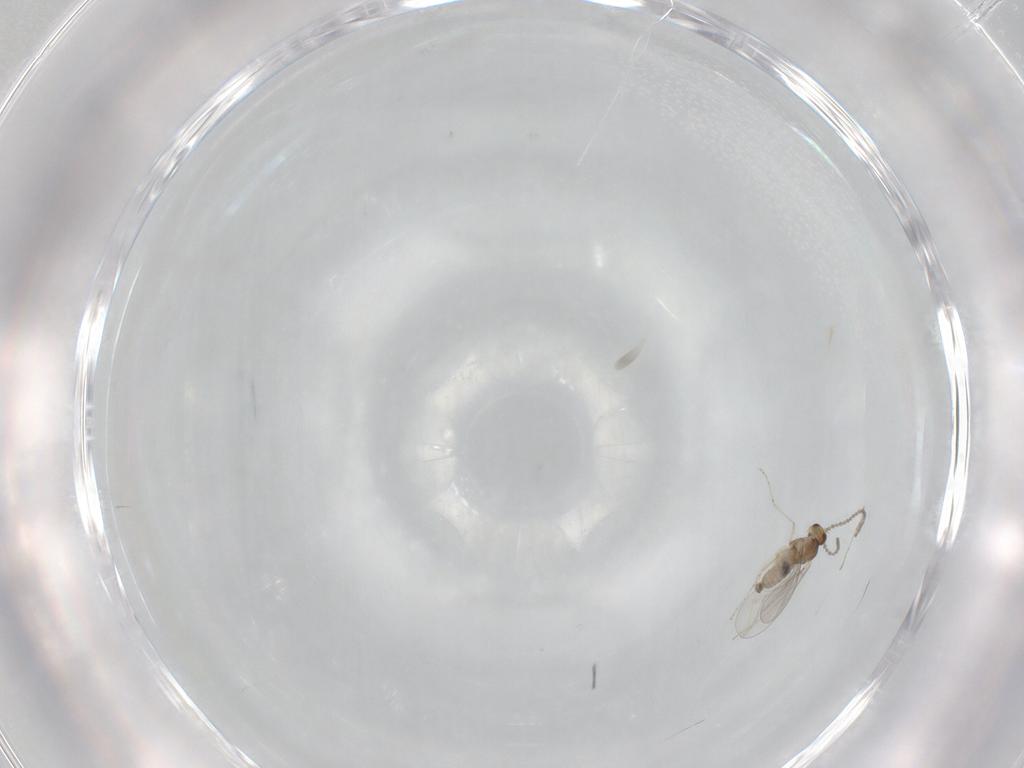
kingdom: Animalia
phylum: Arthropoda
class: Insecta
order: Diptera
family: Cecidomyiidae
